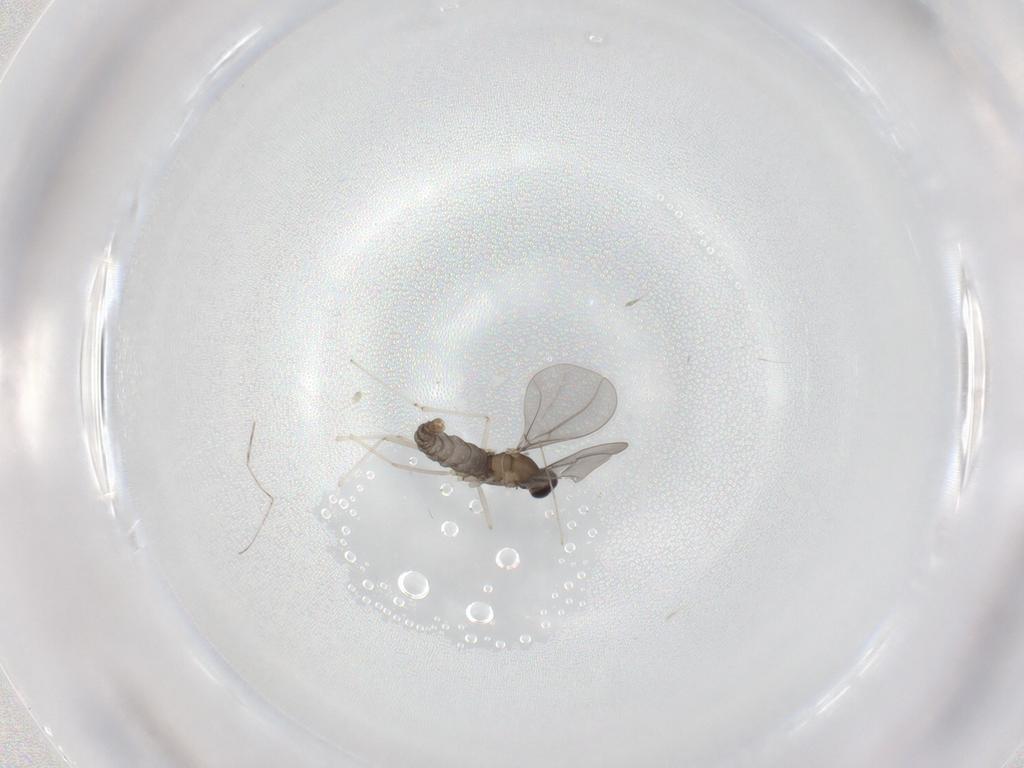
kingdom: Animalia
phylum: Arthropoda
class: Insecta
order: Diptera
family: Cecidomyiidae
